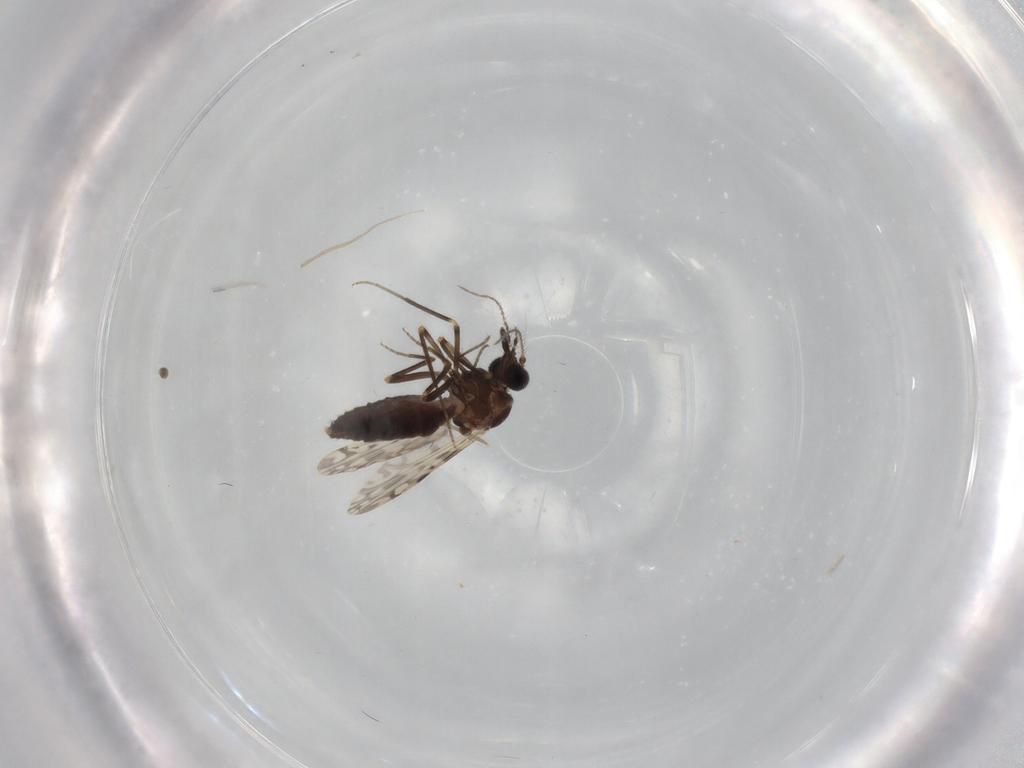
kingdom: Animalia
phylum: Arthropoda
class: Insecta
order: Diptera
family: Ceratopogonidae
